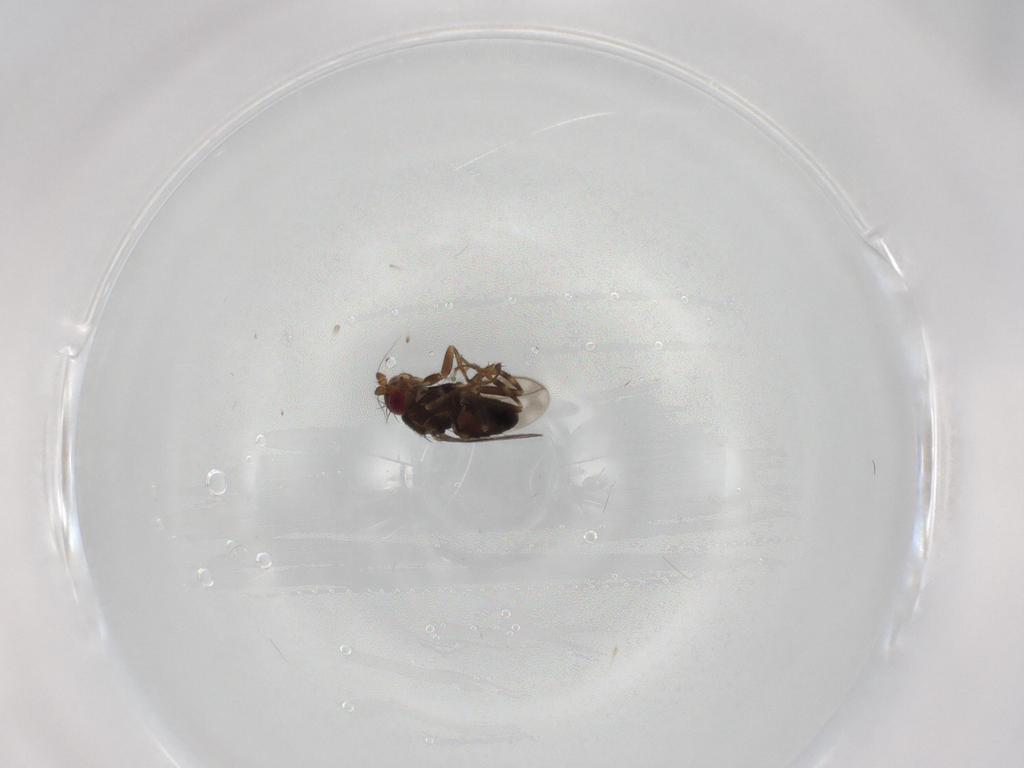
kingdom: Animalia
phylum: Arthropoda
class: Insecta
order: Diptera
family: Sphaeroceridae
